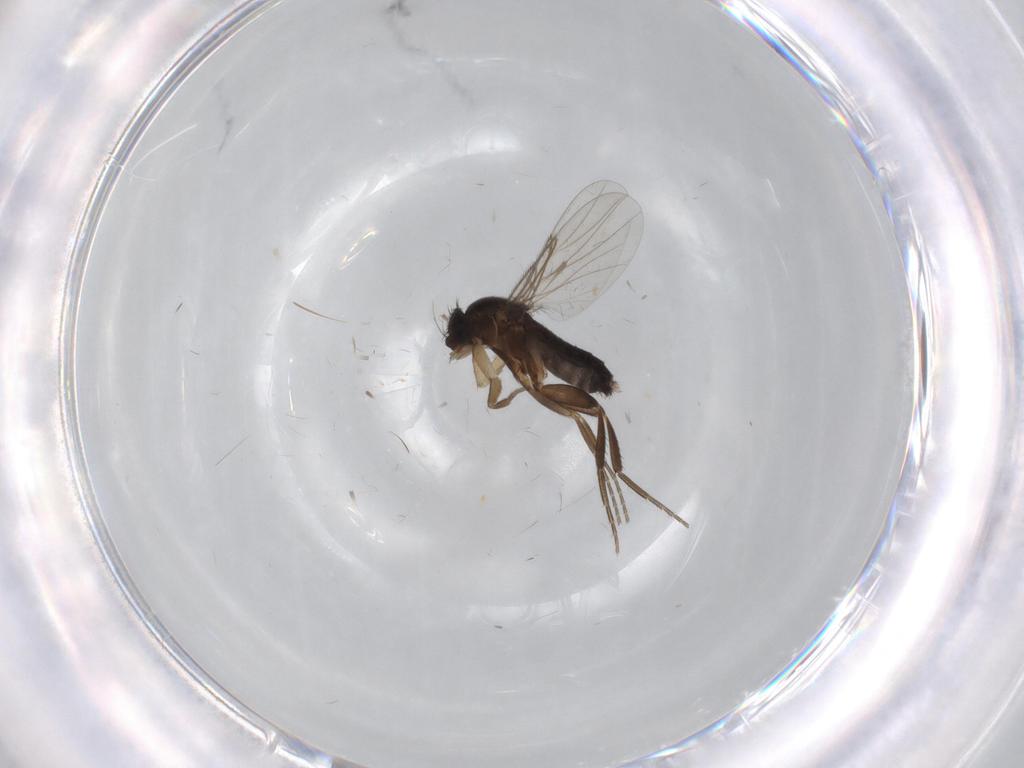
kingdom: Animalia
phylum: Arthropoda
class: Insecta
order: Diptera
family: Phoridae
